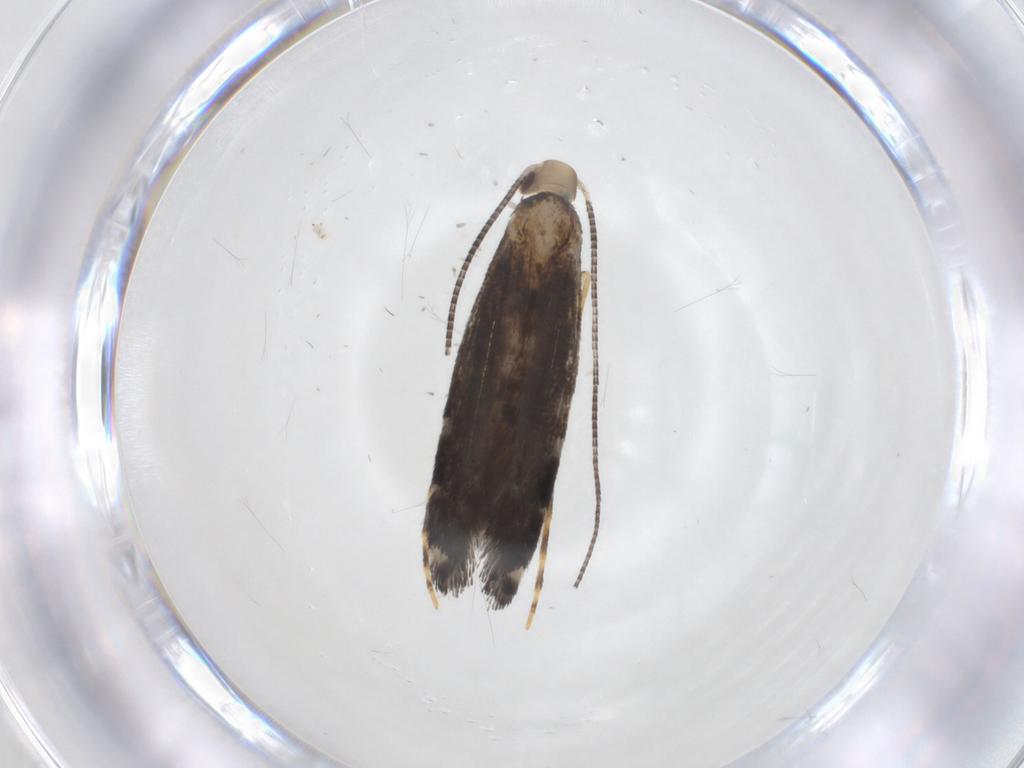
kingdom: Animalia
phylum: Arthropoda
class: Insecta
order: Lepidoptera
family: Gracillariidae
